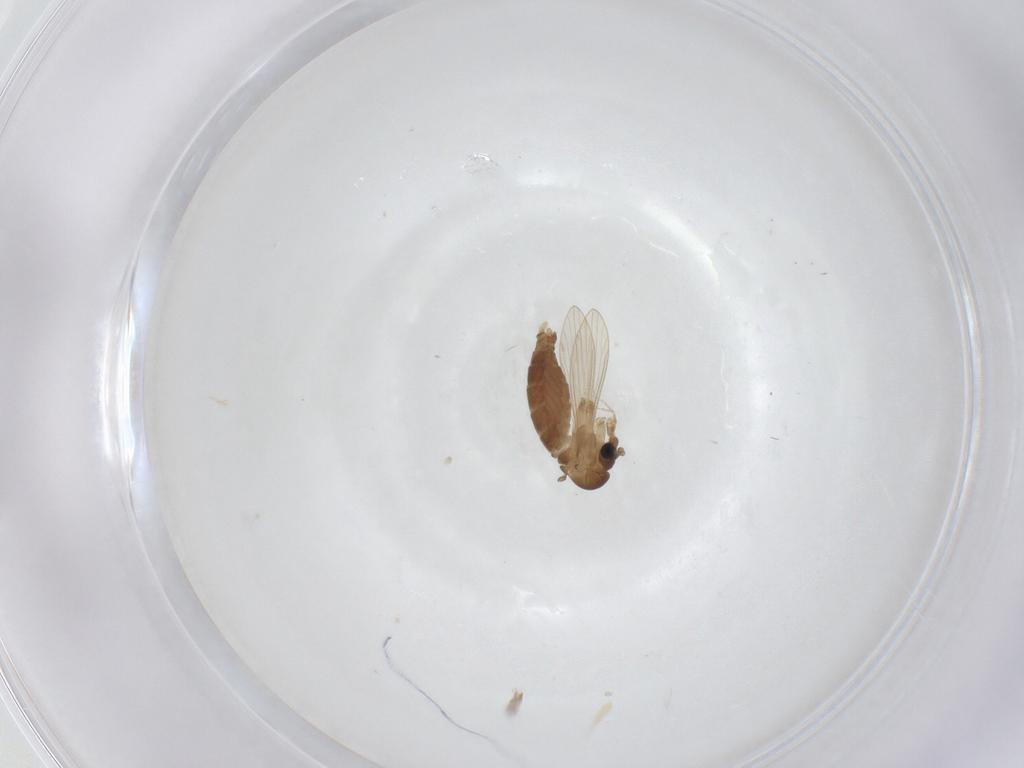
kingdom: Animalia
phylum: Arthropoda
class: Insecta
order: Diptera
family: Psychodidae
